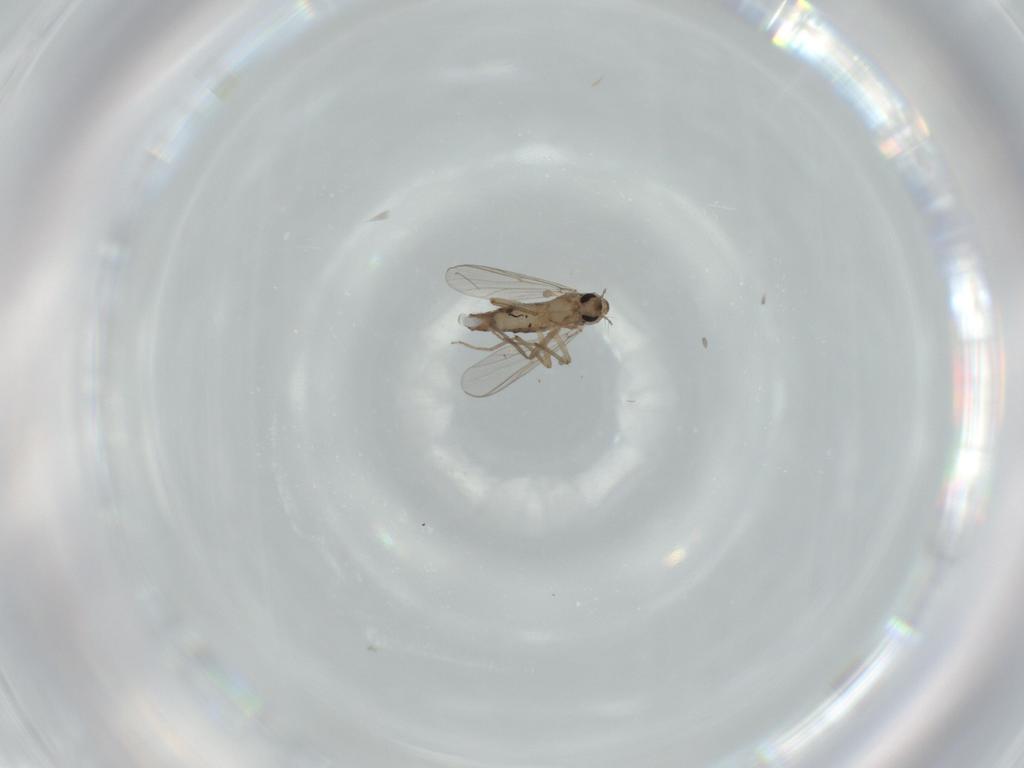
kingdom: Animalia
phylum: Arthropoda
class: Insecta
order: Diptera
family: Chironomidae
